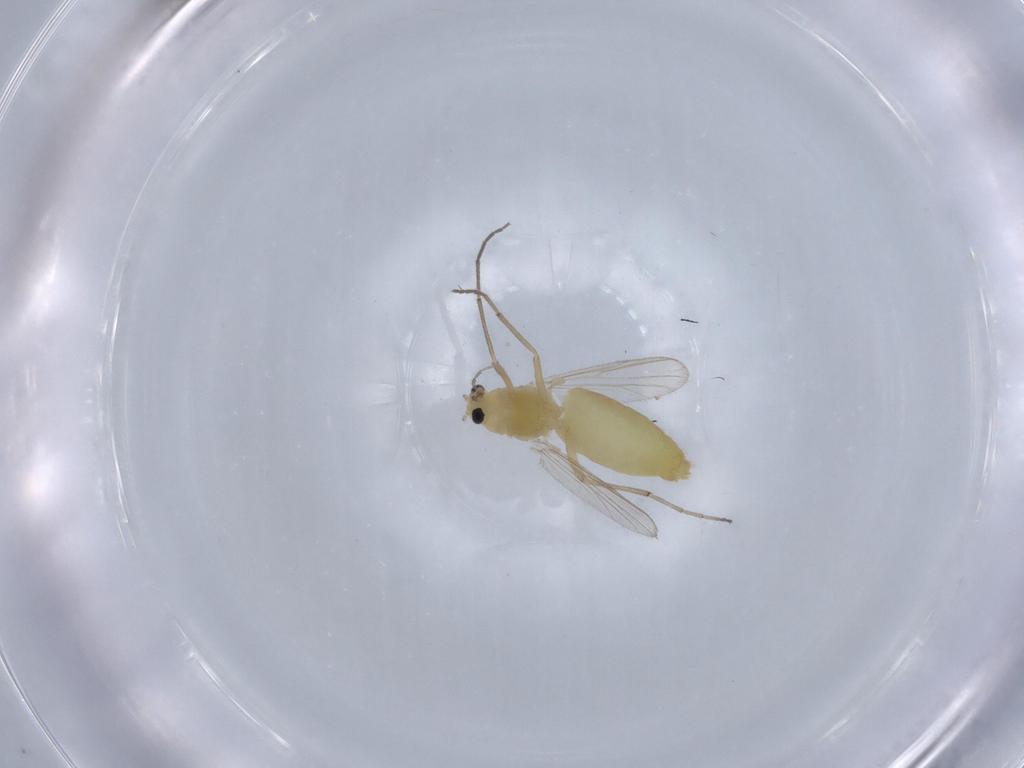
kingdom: Animalia
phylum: Arthropoda
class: Insecta
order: Diptera
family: Chironomidae
